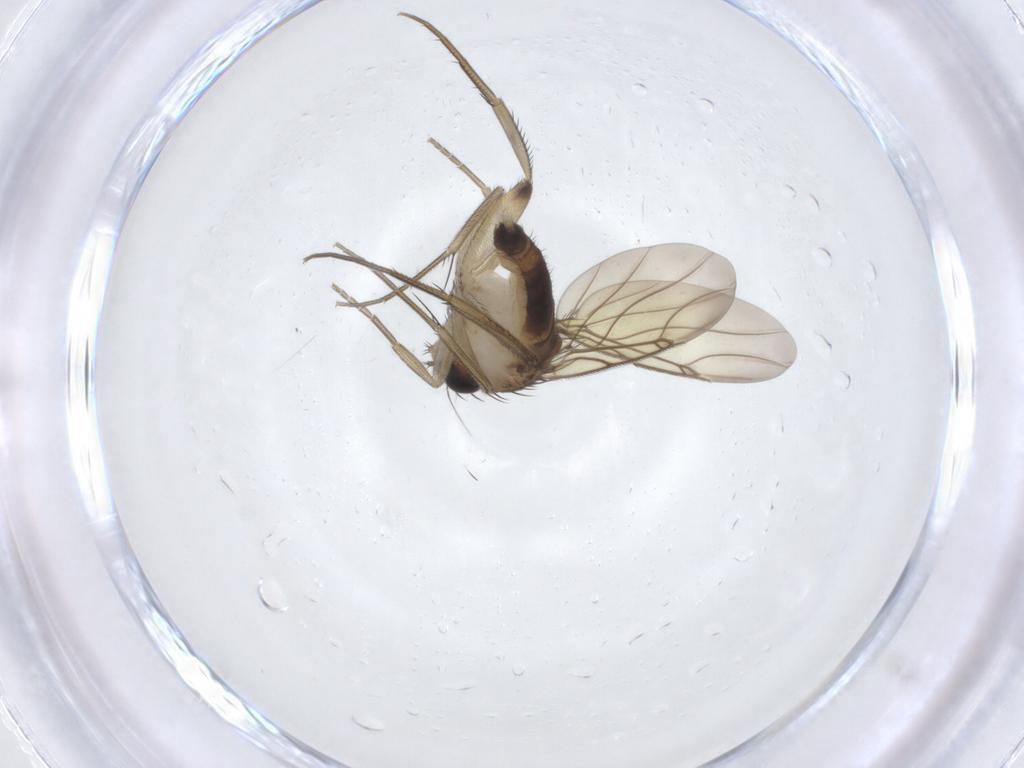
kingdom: Animalia
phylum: Arthropoda
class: Insecta
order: Diptera
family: Phoridae
